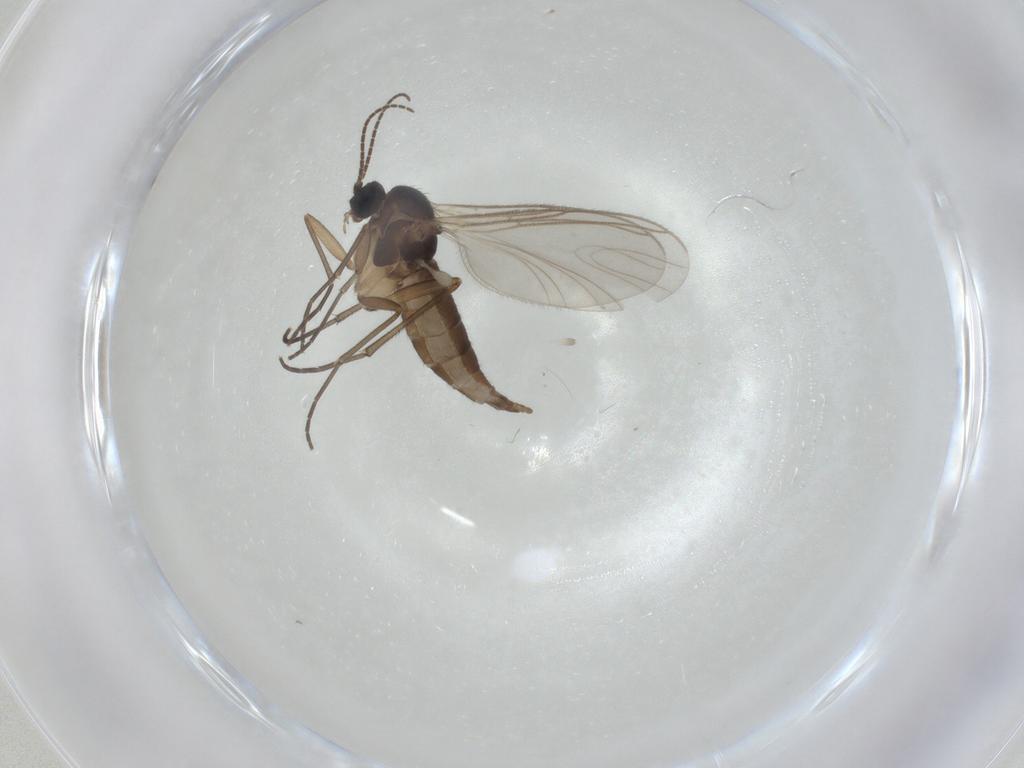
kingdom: Animalia
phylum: Arthropoda
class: Insecta
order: Diptera
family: Sciaridae
